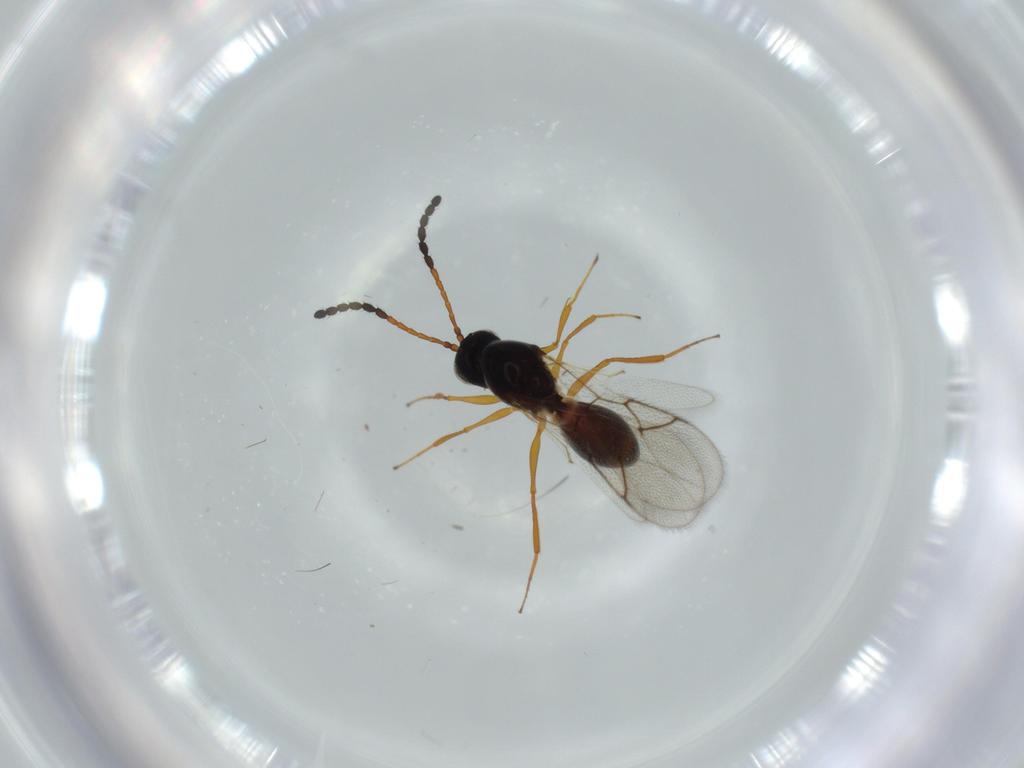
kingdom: Animalia
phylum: Arthropoda
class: Insecta
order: Hymenoptera
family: Figitidae
